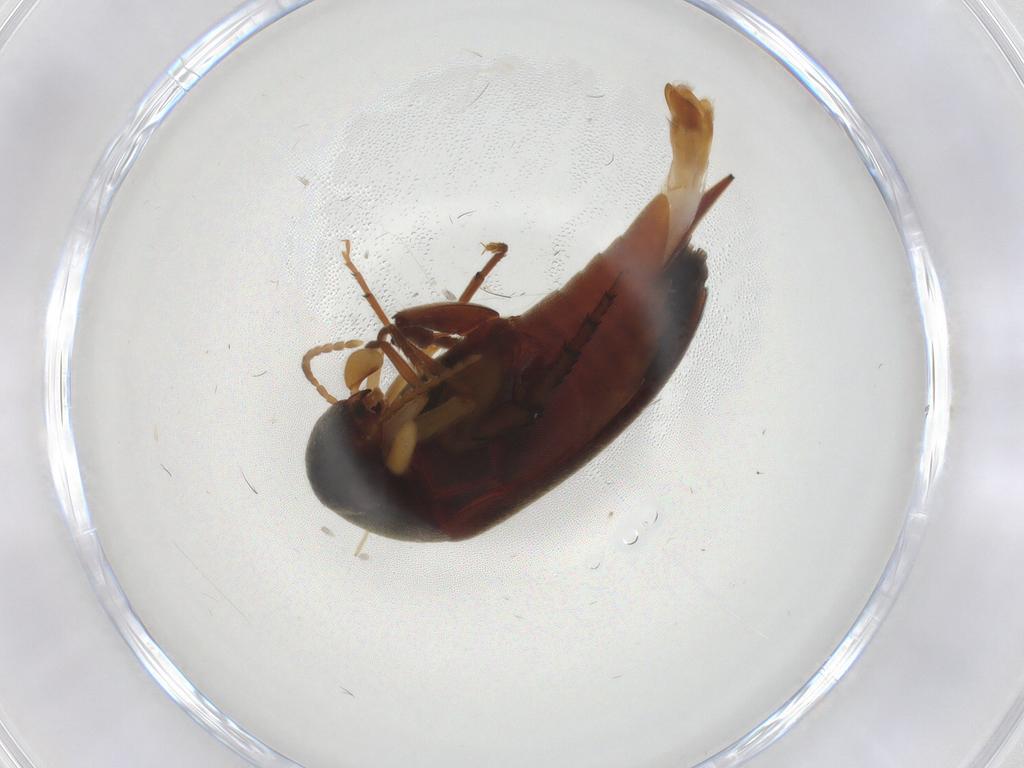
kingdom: Animalia
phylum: Arthropoda
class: Insecta
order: Coleoptera
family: Mordellidae
